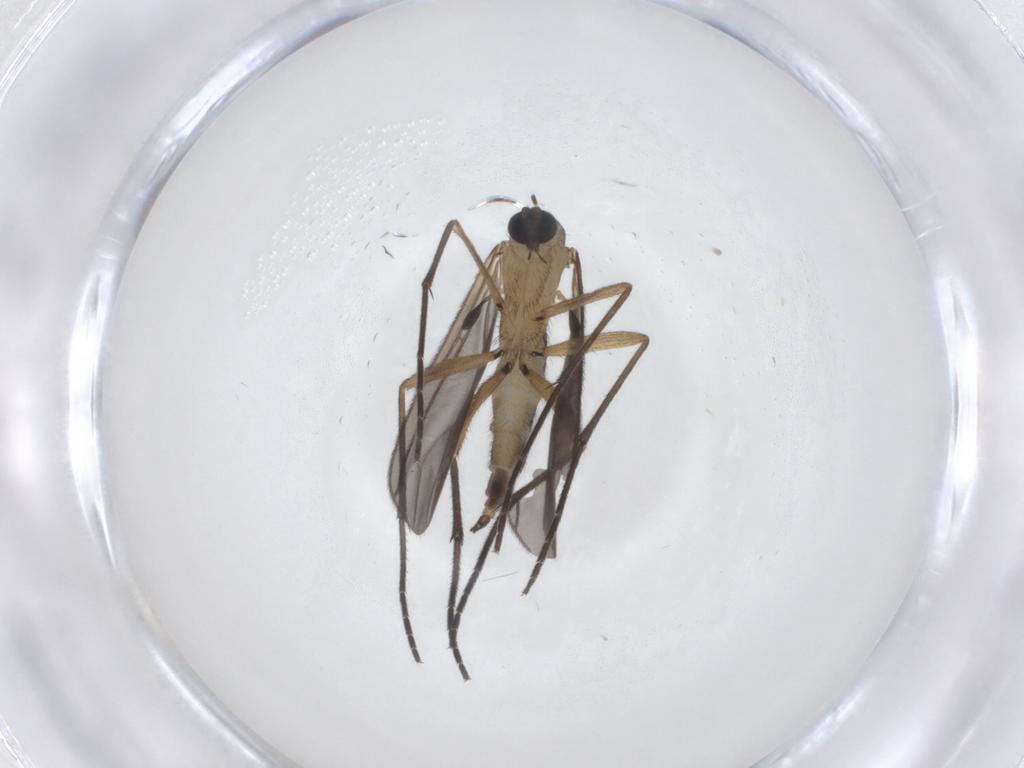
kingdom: Animalia
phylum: Arthropoda
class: Insecta
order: Diptera
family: Sciaridae
